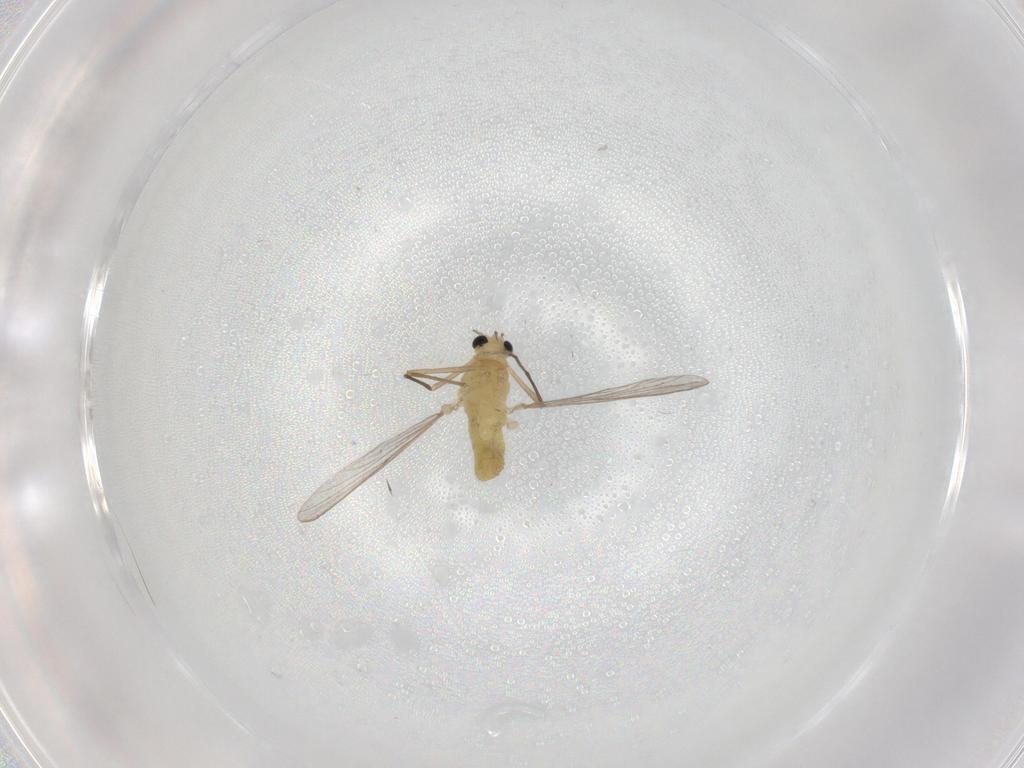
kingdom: Animalia
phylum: Arthropoda
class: Insecta
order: Diptera
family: Chironomidae
